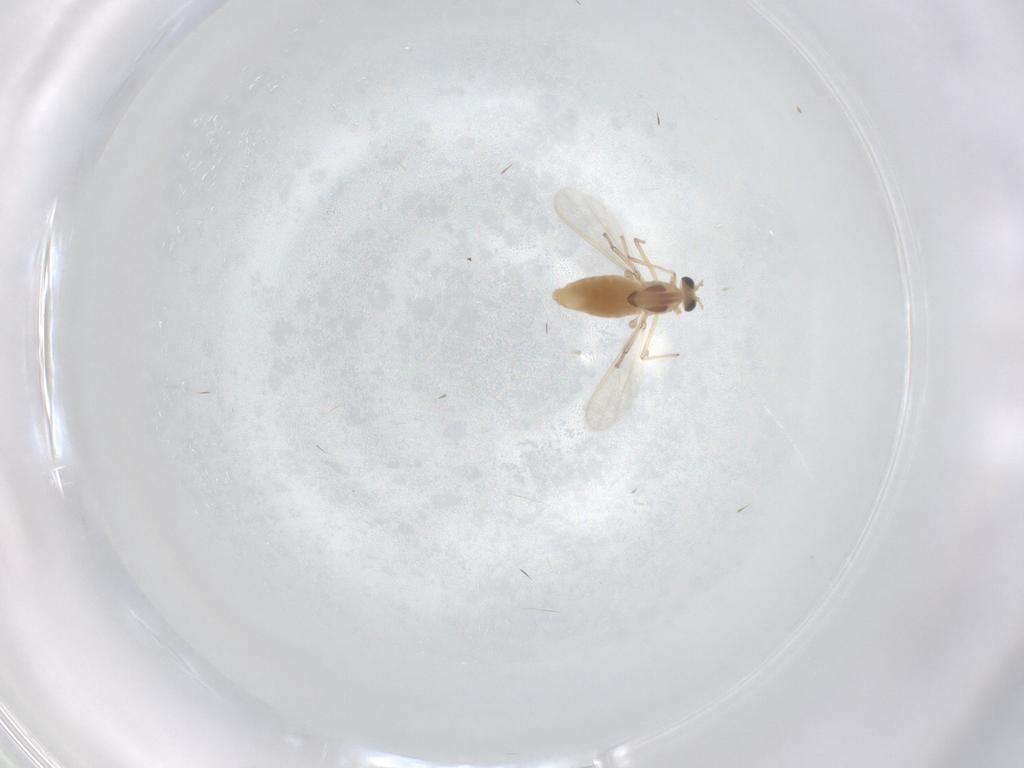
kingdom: Animalia
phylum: Arthropoda
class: Insecta
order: Diptera
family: Chironomidae
